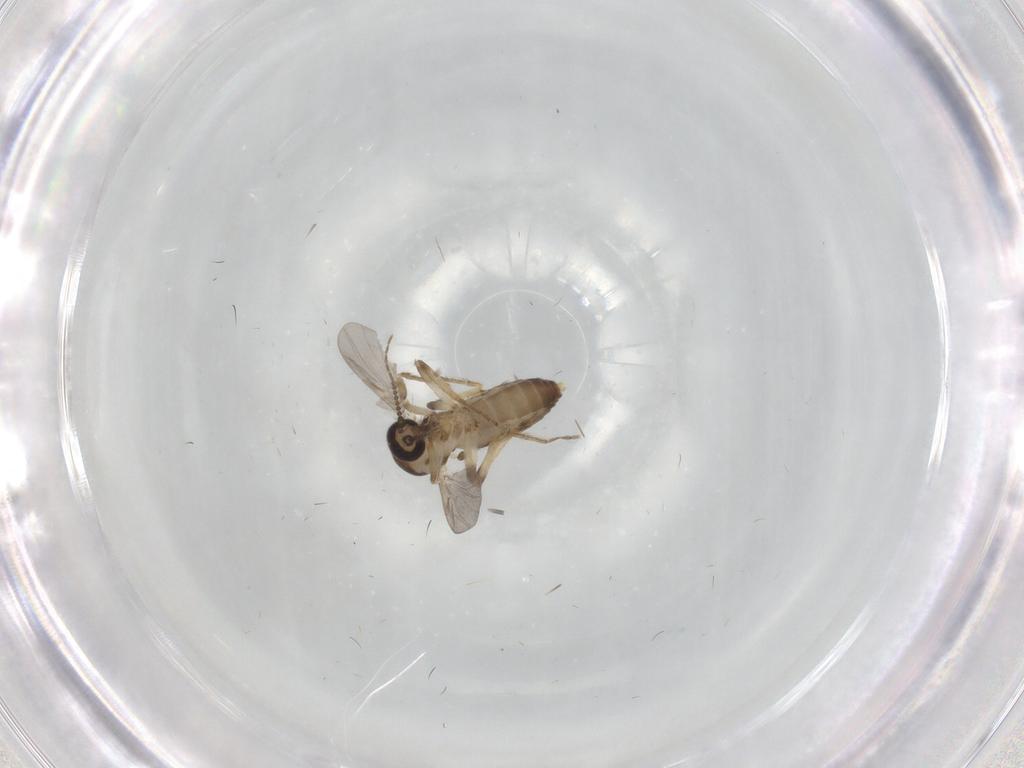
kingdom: Animalia
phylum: Arthropoda
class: Insecta
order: Diptera
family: Ceratopogonidae
